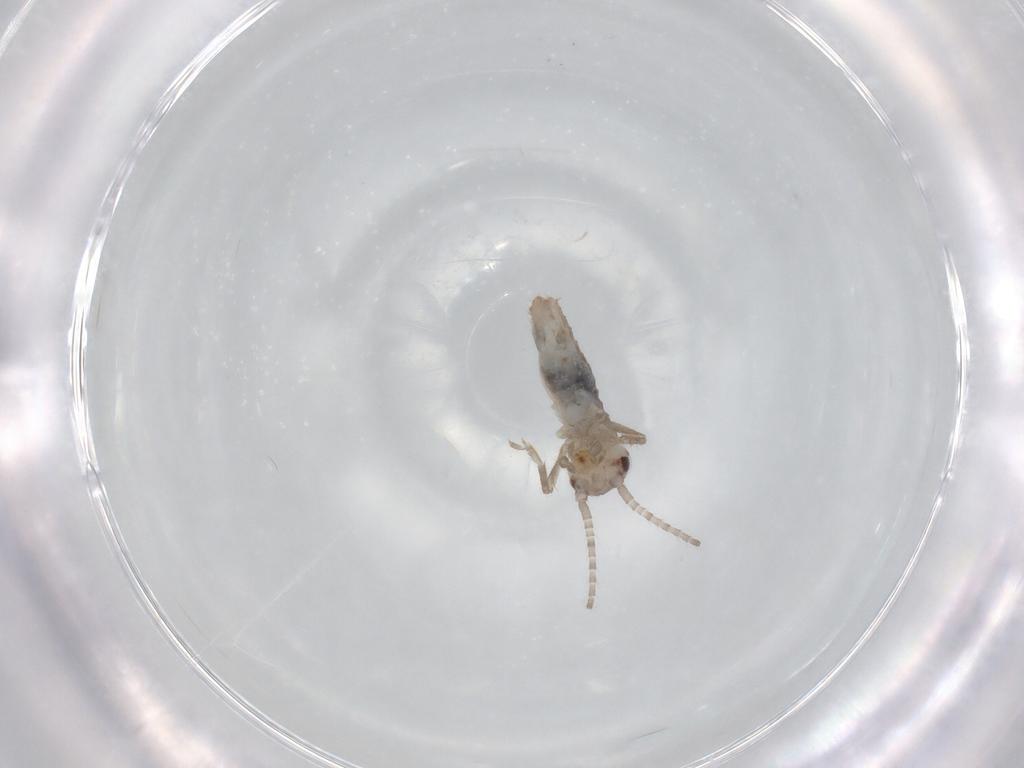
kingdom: Animalia
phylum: Arthropoda
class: Insecta
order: Orthoptera
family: Mogoplistidae
